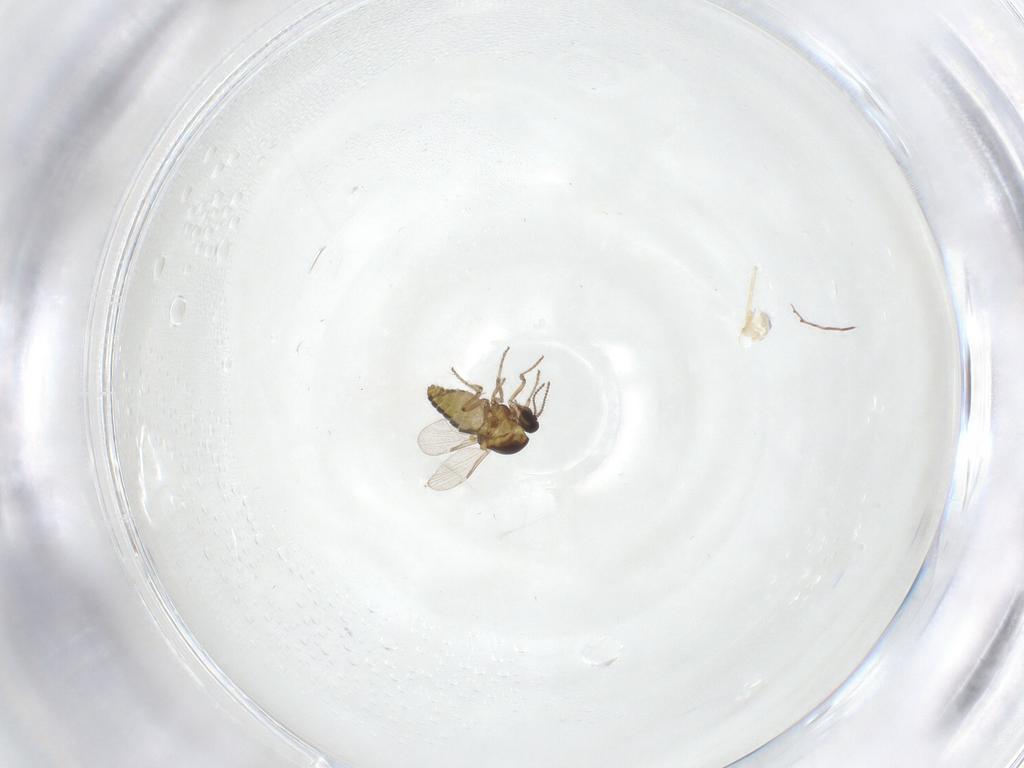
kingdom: Animalia
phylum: Arthropoda
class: Insecta
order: Diptera
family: Ceratopogonidae
